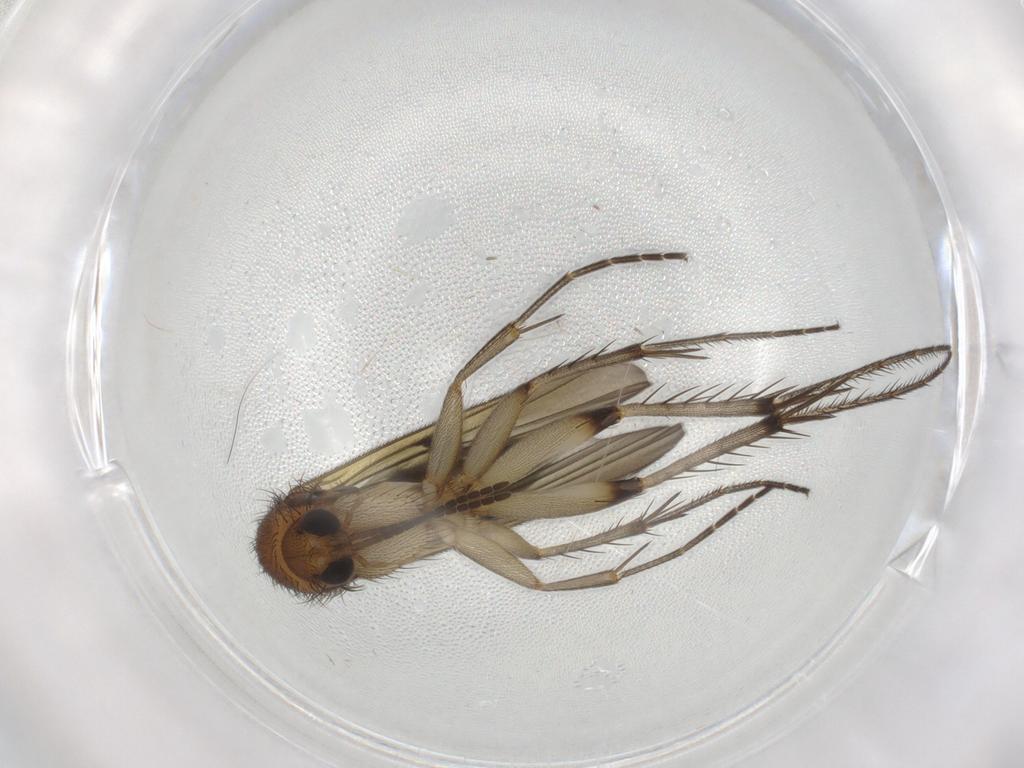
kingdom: Animalia
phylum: Arthropoda
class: Insecta
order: Diptera
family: Mycetophilidae
